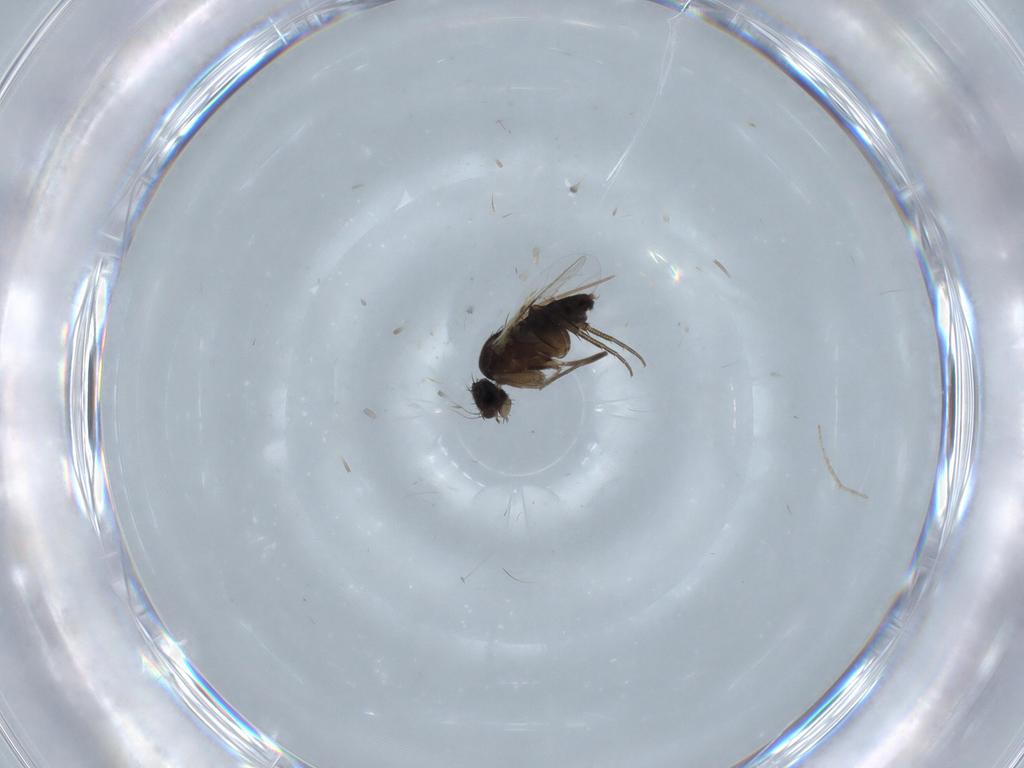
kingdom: Animalia
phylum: Arthropoda
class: Insecta
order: Diptera
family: Phoridae
